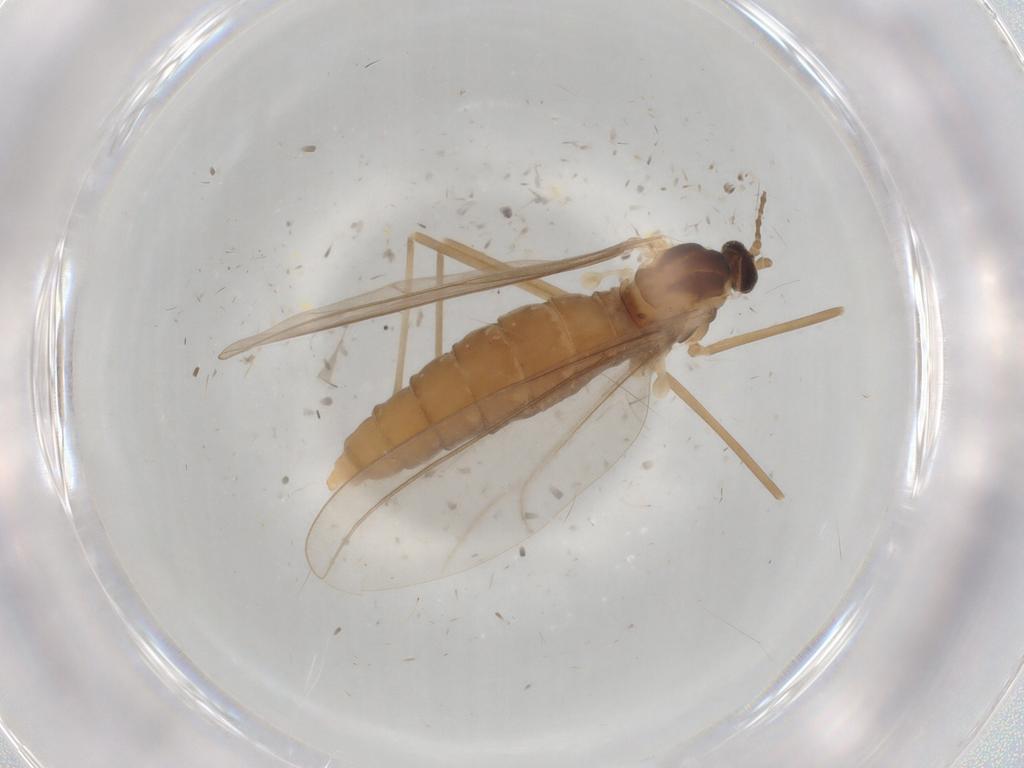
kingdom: Animalia
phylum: Arthropoda
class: Insecta
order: Diptera
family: Cecidomyiidae
